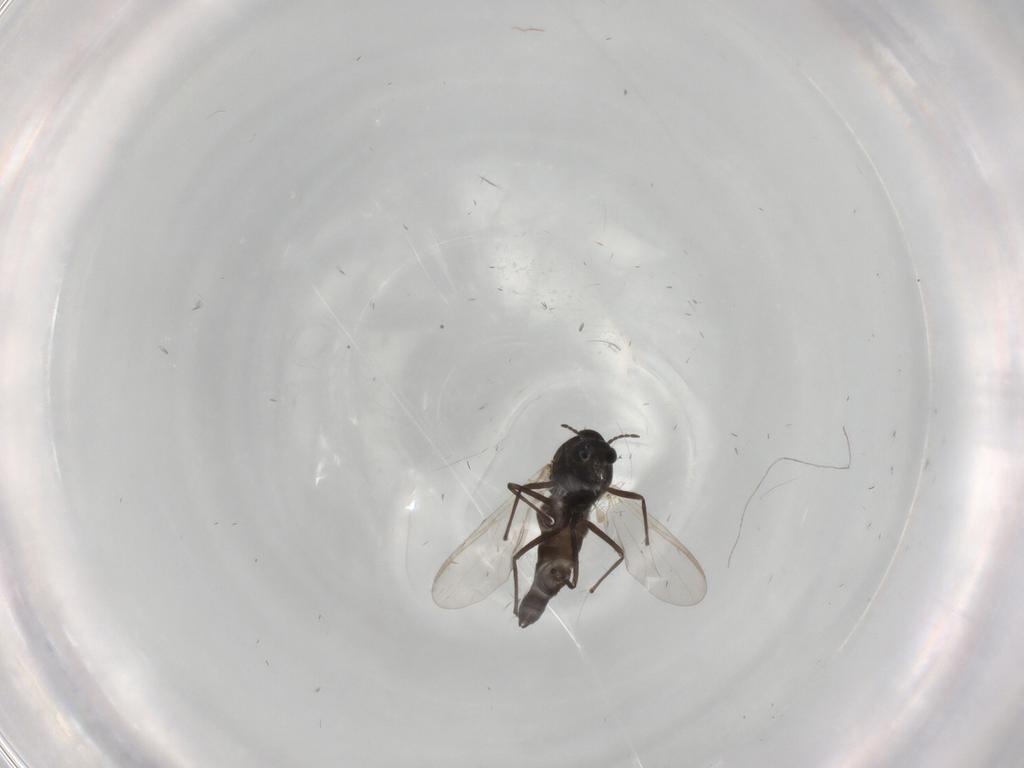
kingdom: Animalia
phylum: Arthropoda
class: Insecta
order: Diptera
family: Chironomidae
